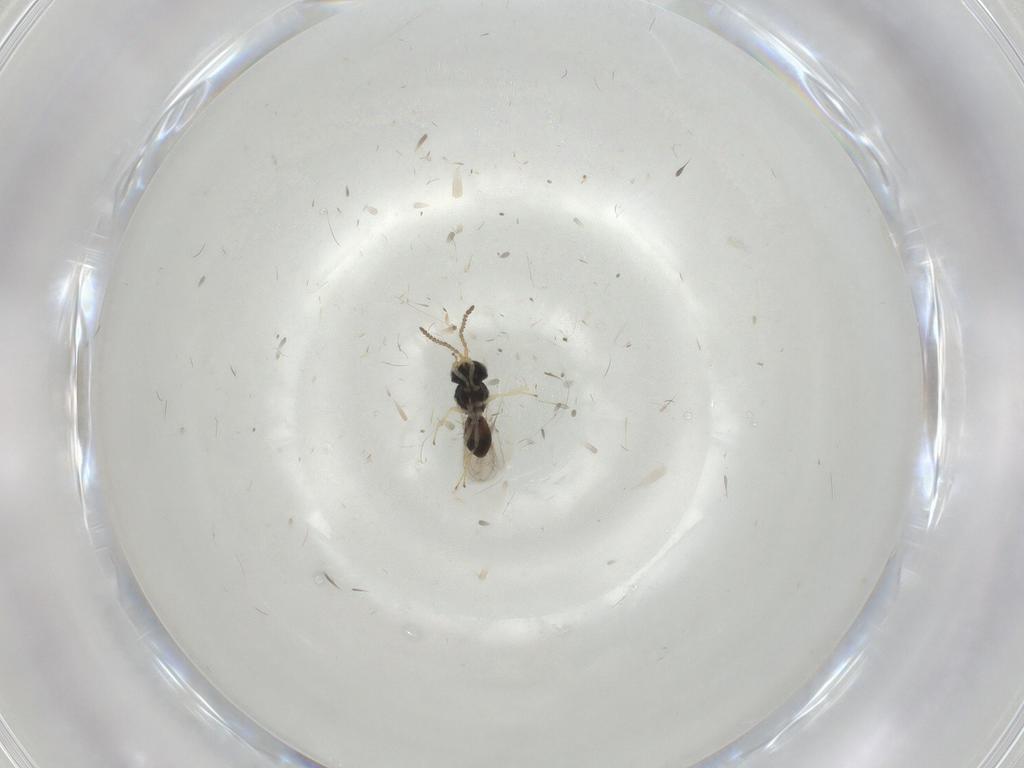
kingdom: Animalia
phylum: Arthropoda
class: Insecta
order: Hymenoptera
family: Scelionidae
